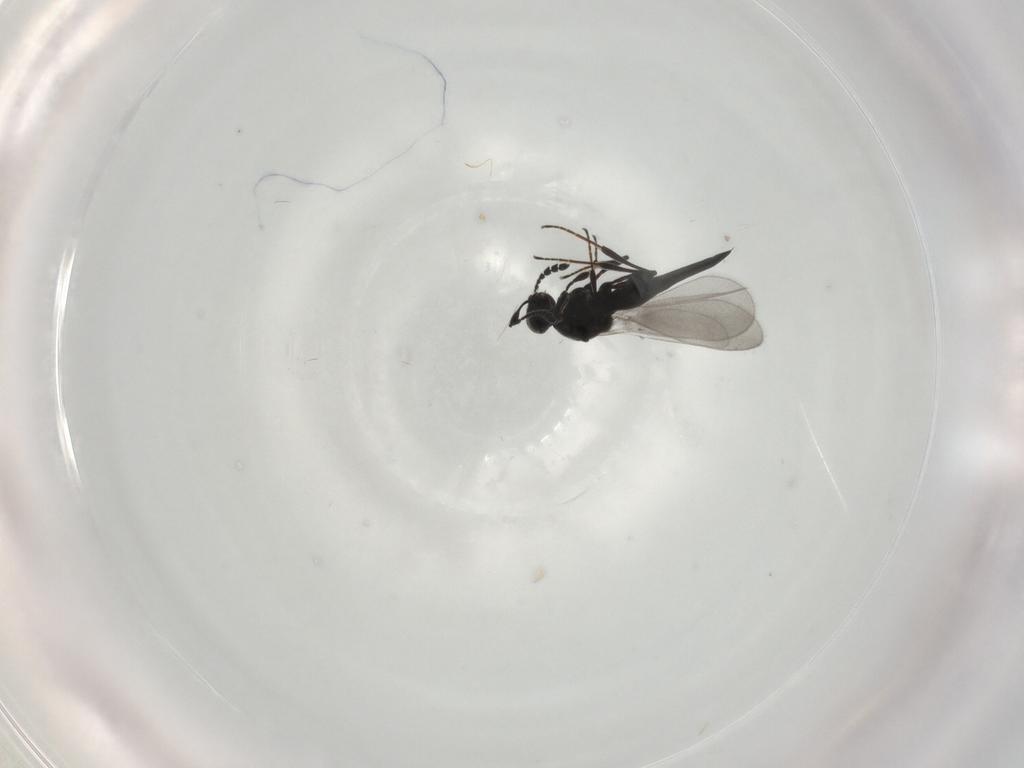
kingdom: Animalia
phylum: Arthropoda
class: Insecta
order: Hymenoptera
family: Platygastridae
